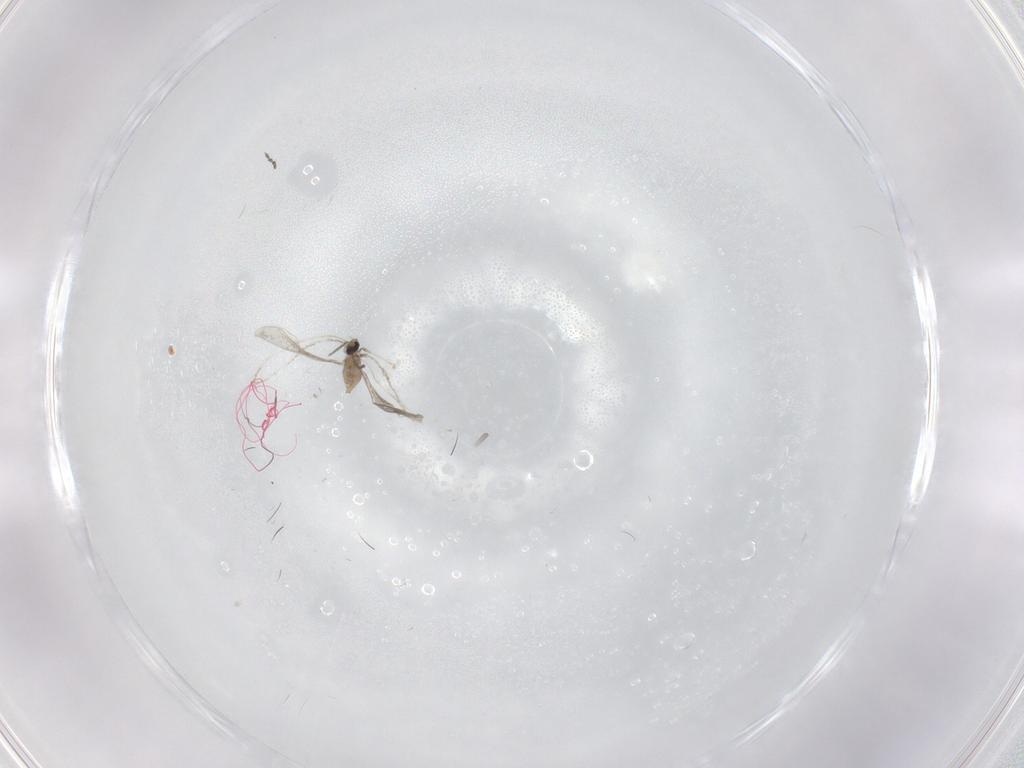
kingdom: Animalia
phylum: Arthropoda
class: Insecta
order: Diptera
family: Cecidomyiidae
